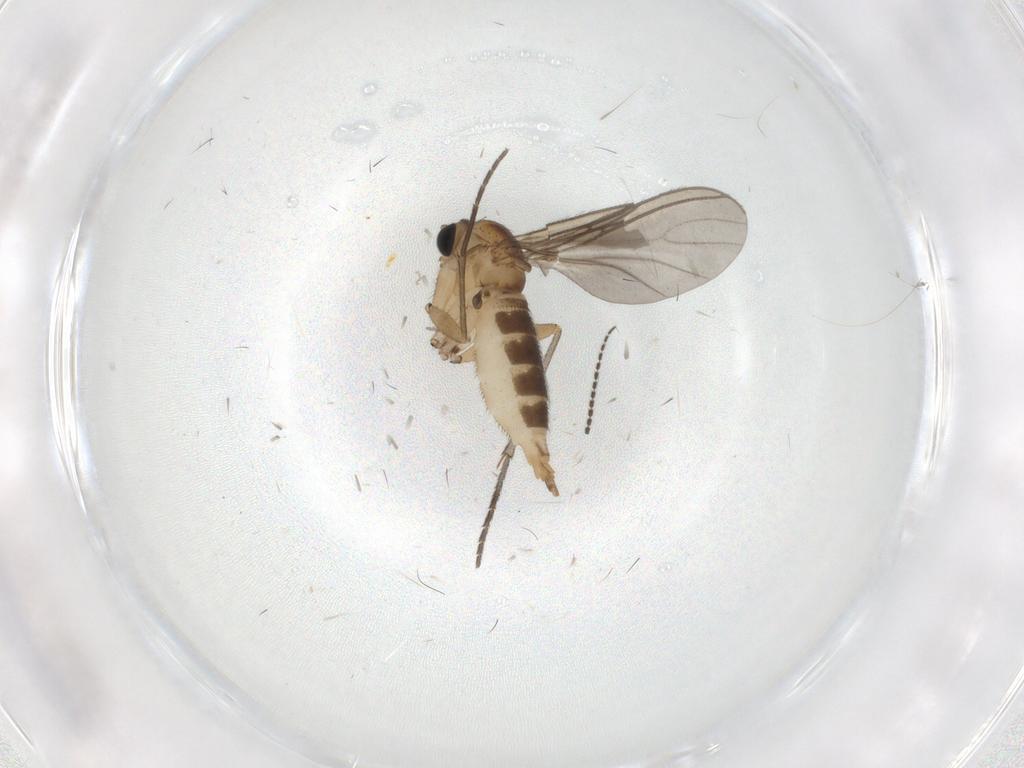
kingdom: Animalia
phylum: Arthropoda
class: Insecta
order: Diptera
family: Sciaridae
